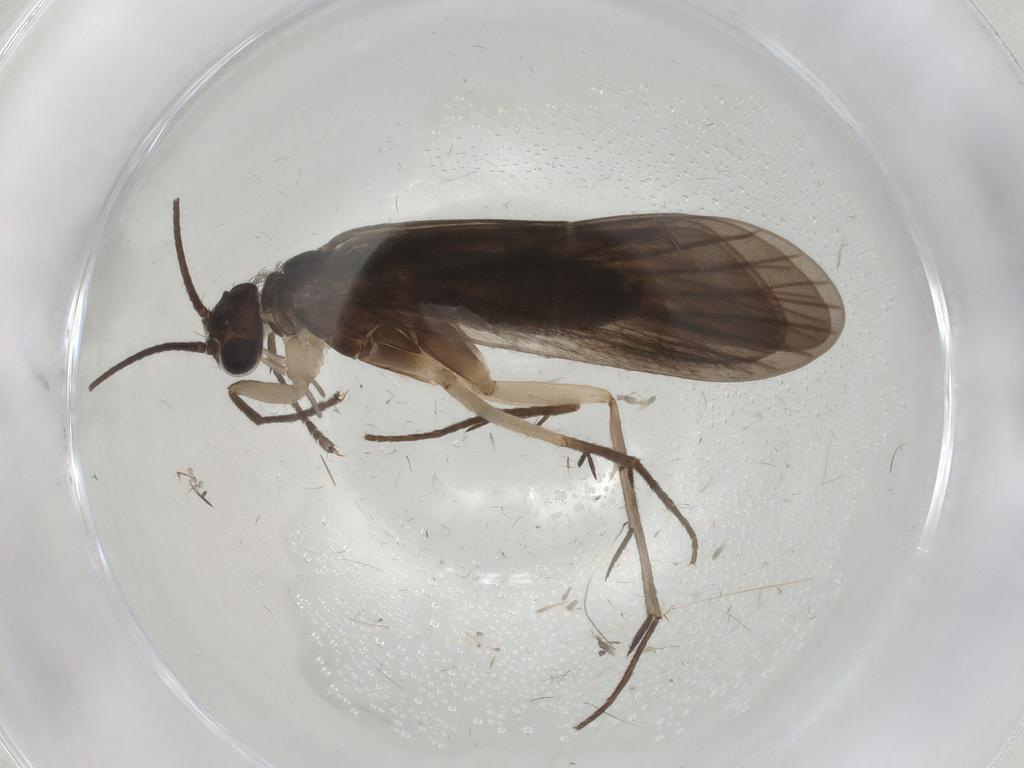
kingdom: Animalia
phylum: Arthropoda
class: Insecta
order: Trichoptera
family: Philopotamidae
